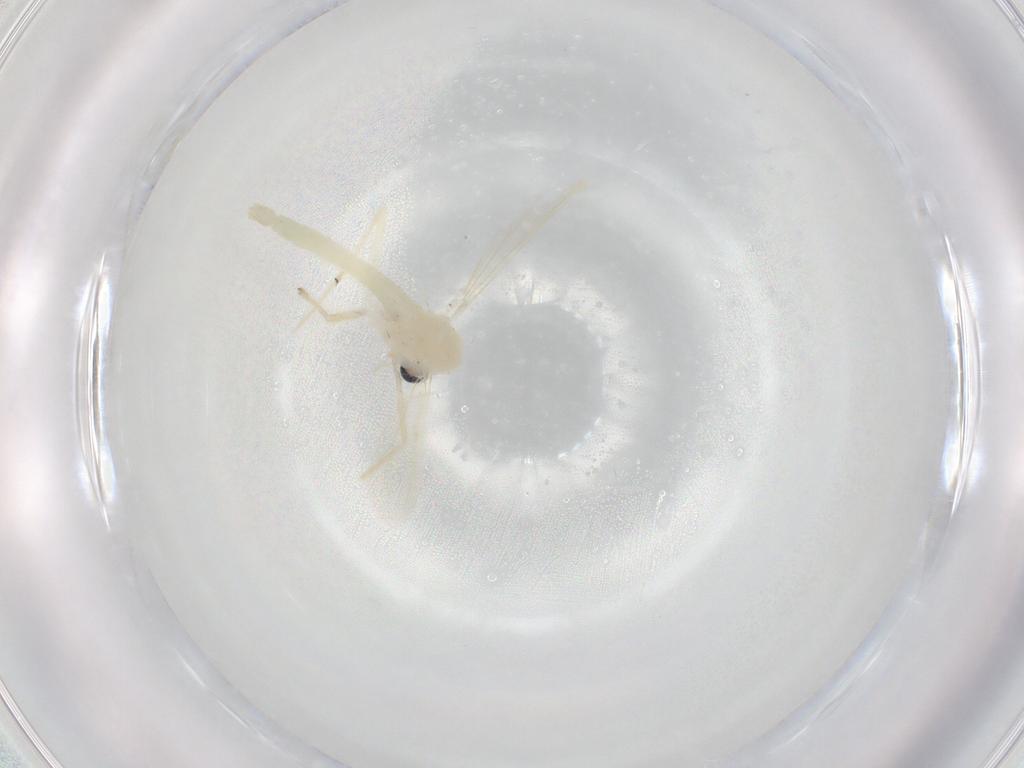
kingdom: Animalia
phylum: Arthropoda
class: Insecta
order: Diptera
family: Chironomidae
